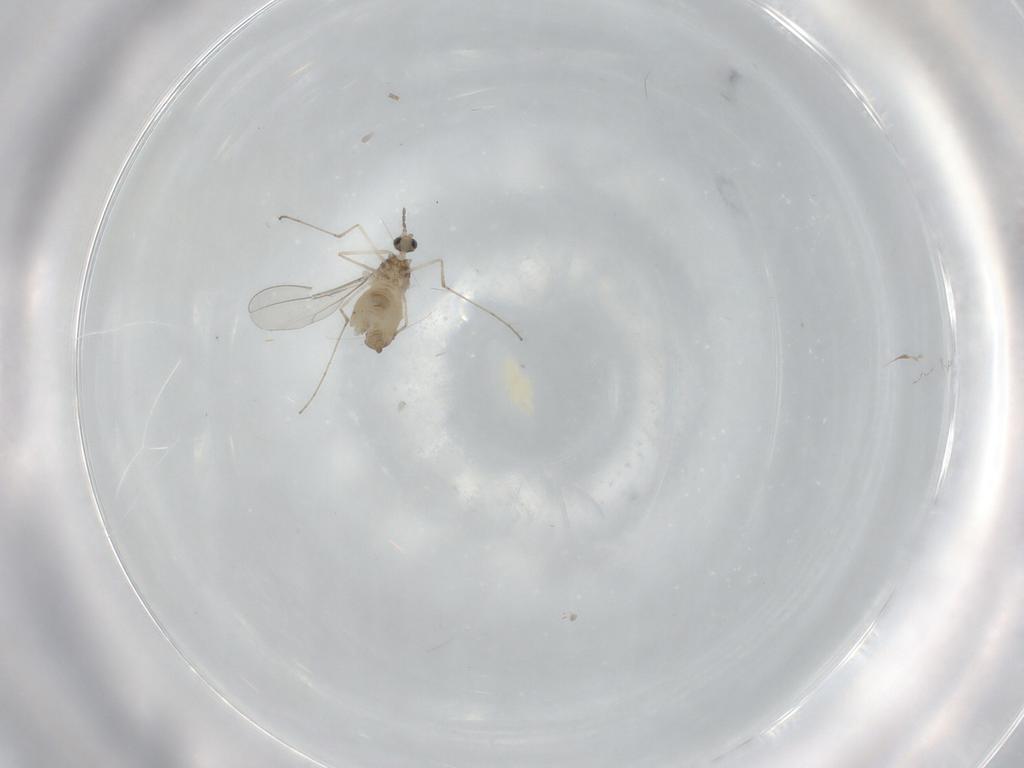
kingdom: Animalia
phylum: Arthropoda
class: Insecta
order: Diptera
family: Cecidomyiidae
